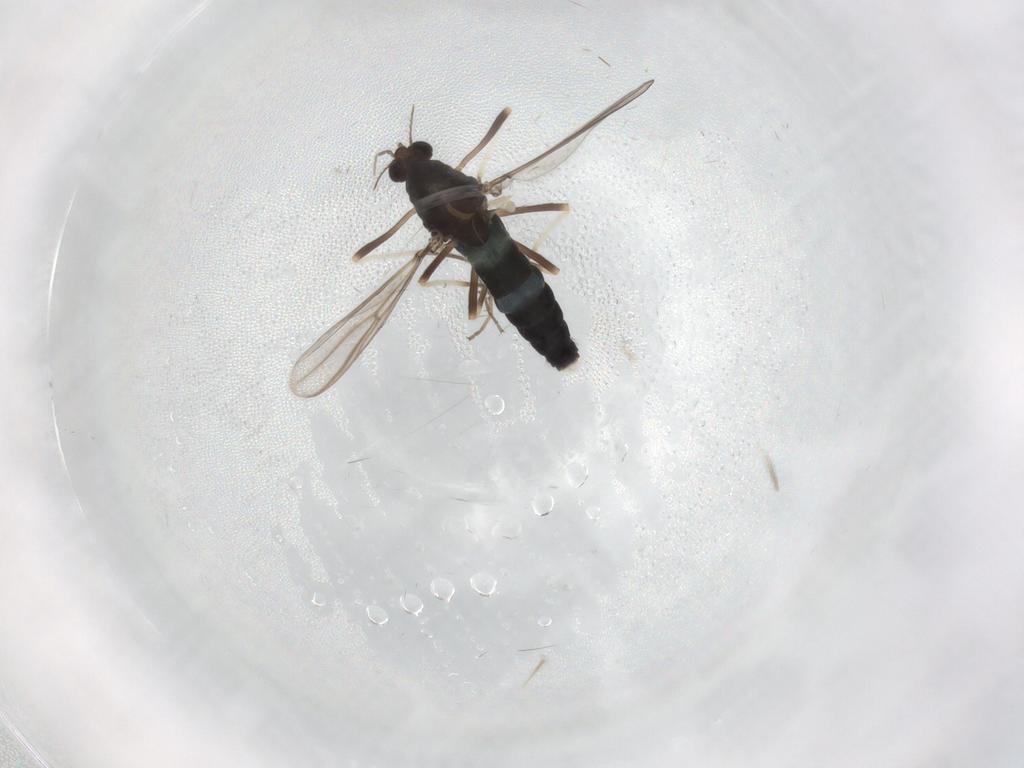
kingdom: Animalia
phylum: Arthropoda
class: Insecta
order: Diptera
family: Chironomidae
